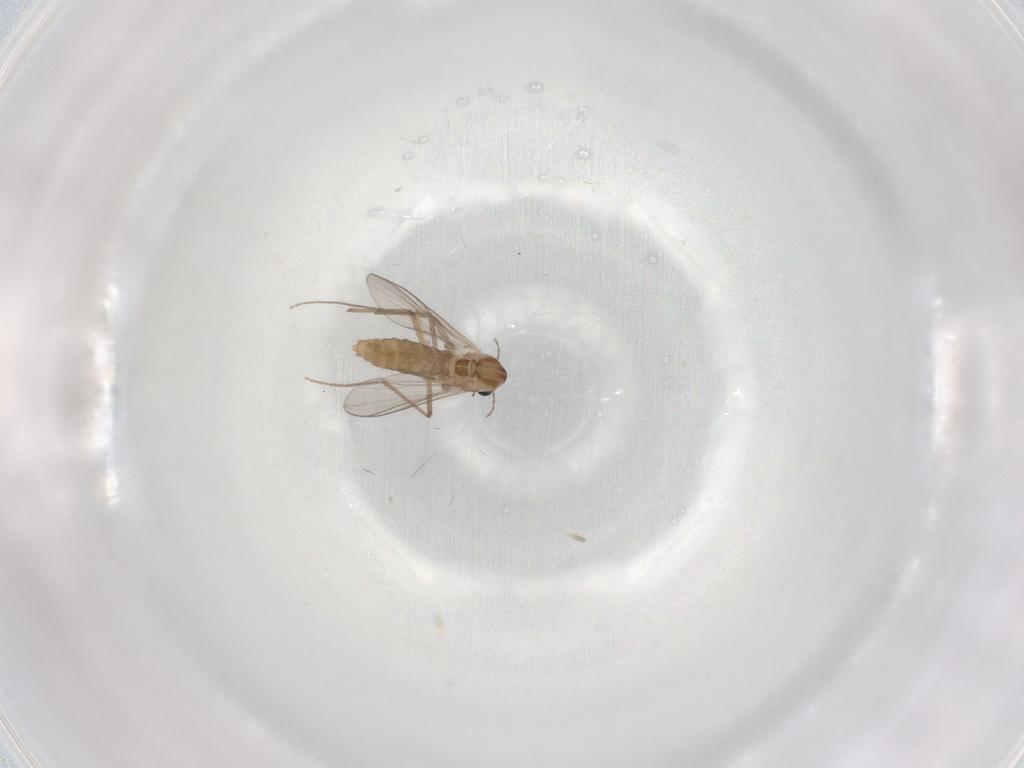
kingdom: Animalia
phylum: Arthropoda
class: Insecta
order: Diptera
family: Chironomidae
